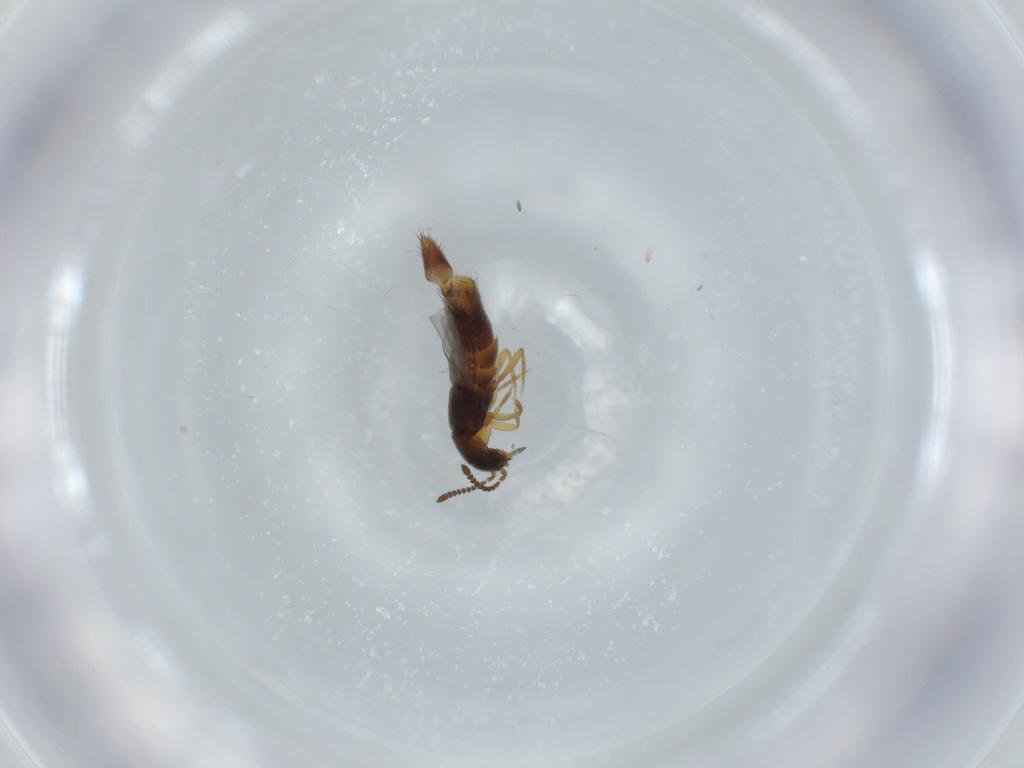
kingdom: Animalia
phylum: Arthropoda
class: Insecta
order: Coleoptera
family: Staphylinidae
